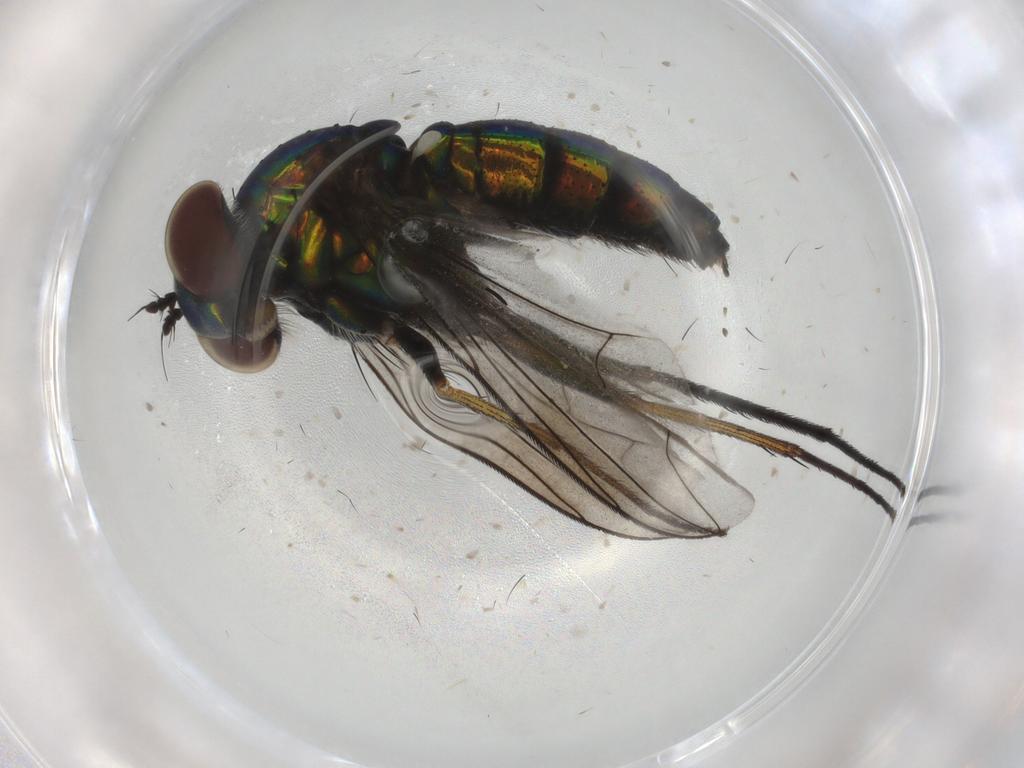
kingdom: Animalia
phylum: Arthropoda
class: Insecta
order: Diptera
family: Dolichopodidae
